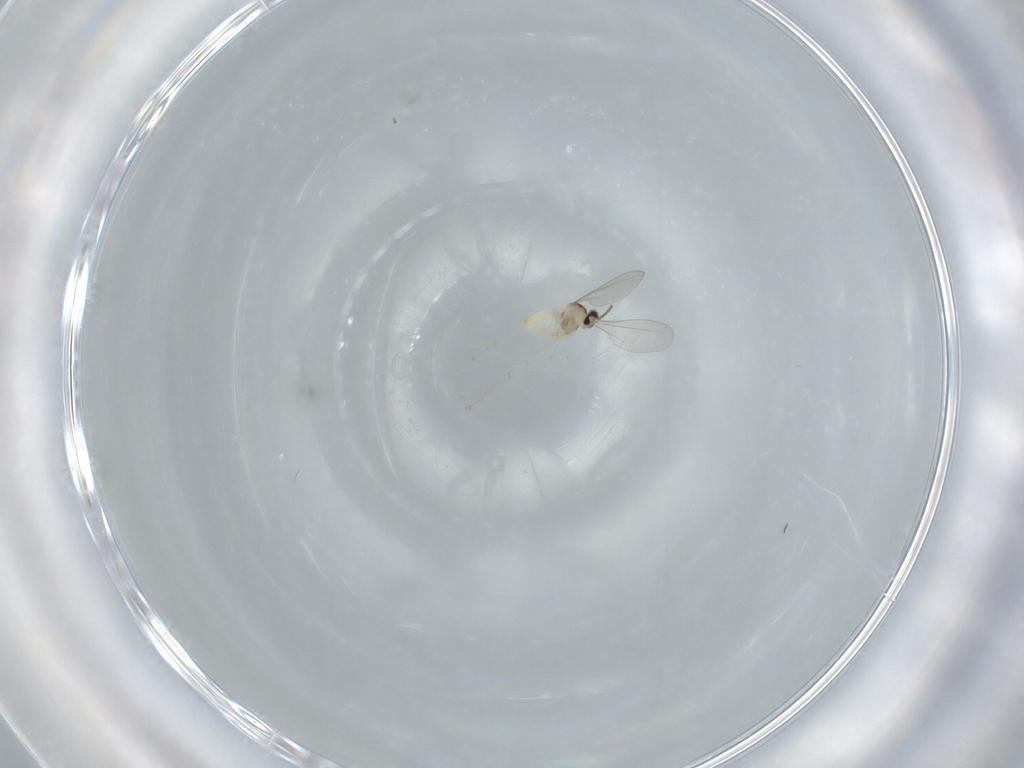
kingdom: Animalia
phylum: Arthropoda
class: Insecta
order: Diptera
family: Cecidomyiidae
